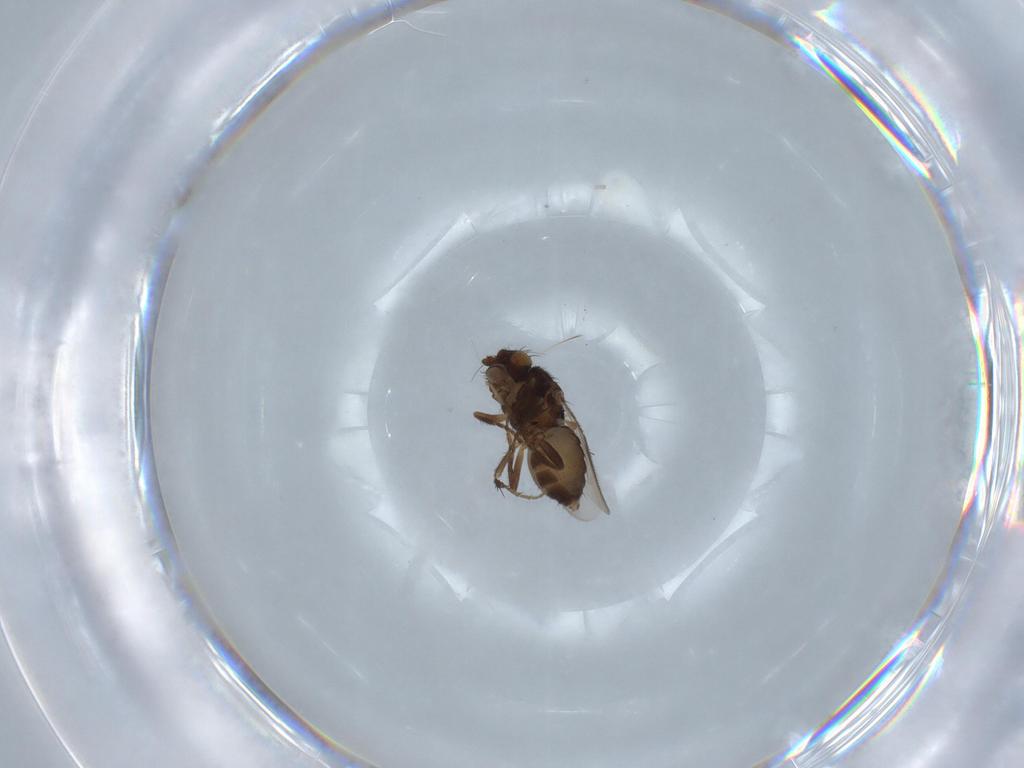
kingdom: Animalia
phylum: Arthropoda
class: Insecta
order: Diptera
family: Sphaeroceridae
